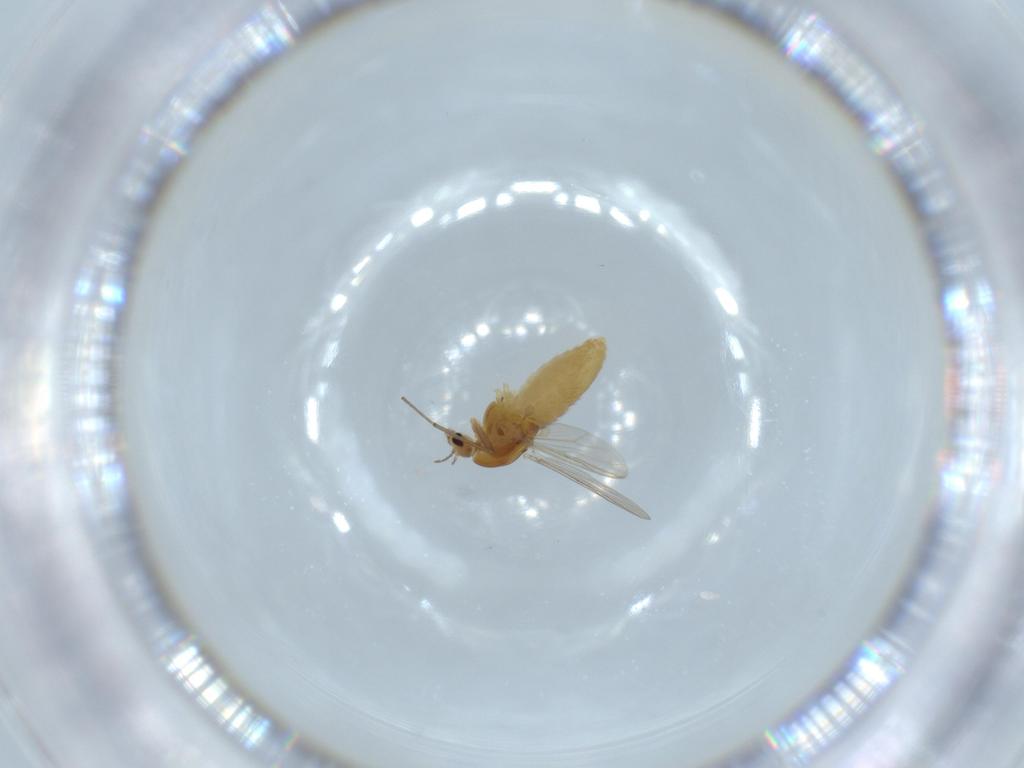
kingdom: Animalia
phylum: Arthropoda
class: Insecta
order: Diptera
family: Chironomidae
